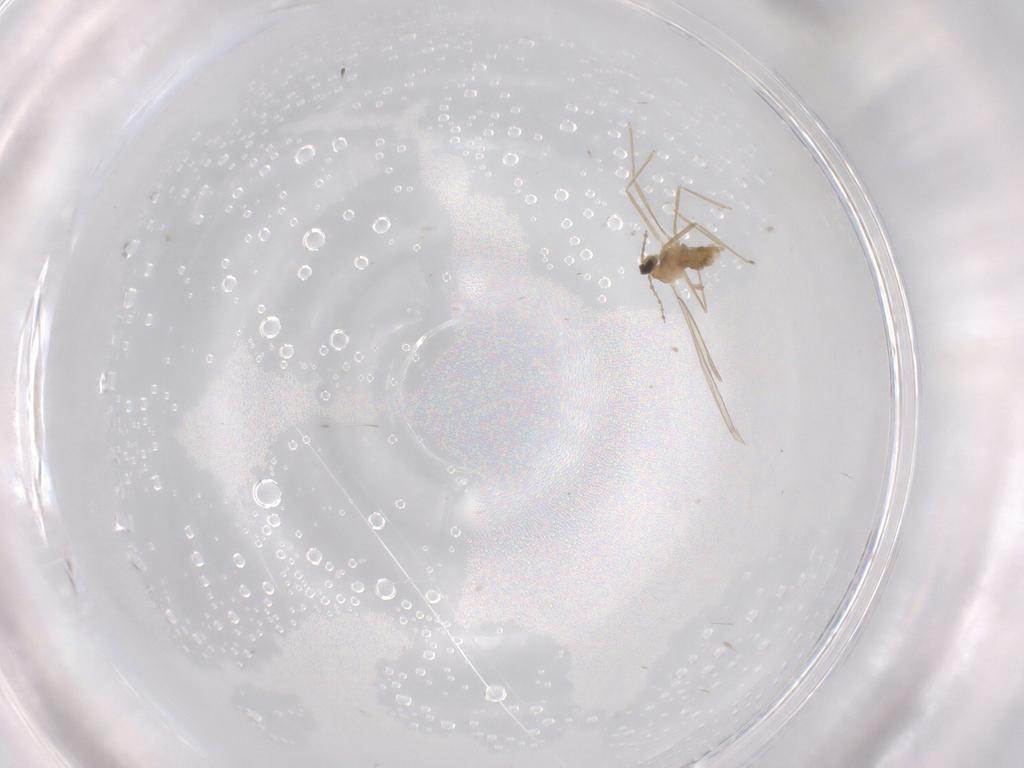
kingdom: Animalia
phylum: Arthropoda
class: Insecta
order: Diptera
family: Cecidomyiidae
